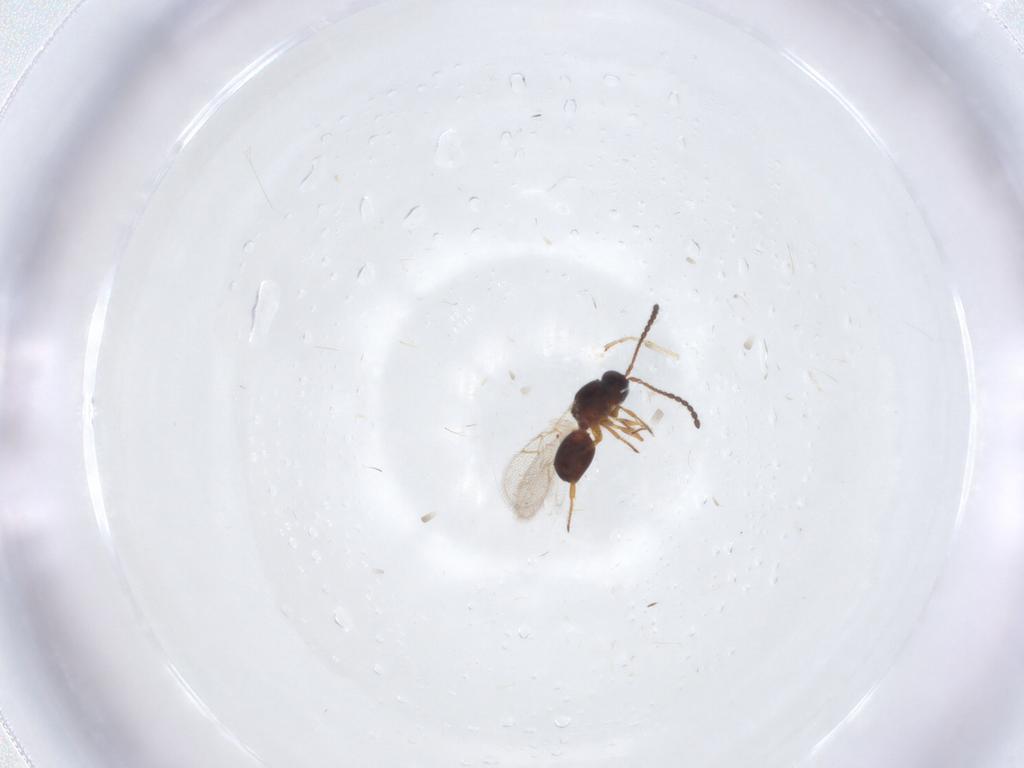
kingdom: Animalia
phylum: Arthropoda
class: Insecta
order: Hymenoptera
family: Figitidae
